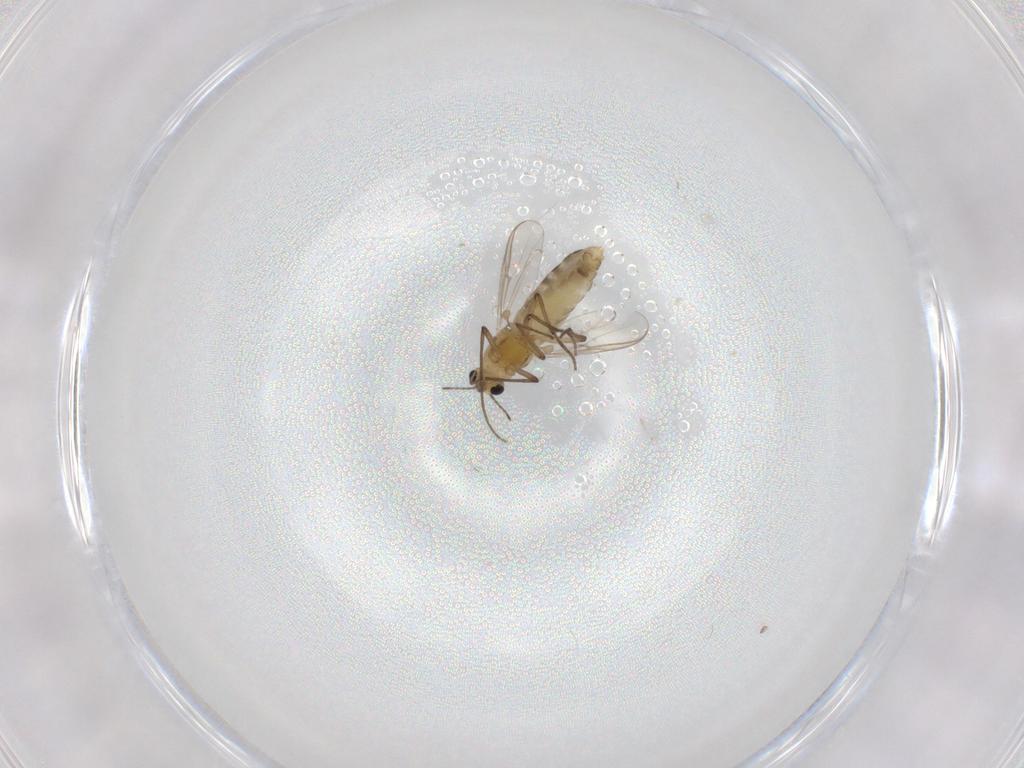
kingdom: Animalia
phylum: Arthropoda
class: Insecta
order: Diptera
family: Chironomidae
